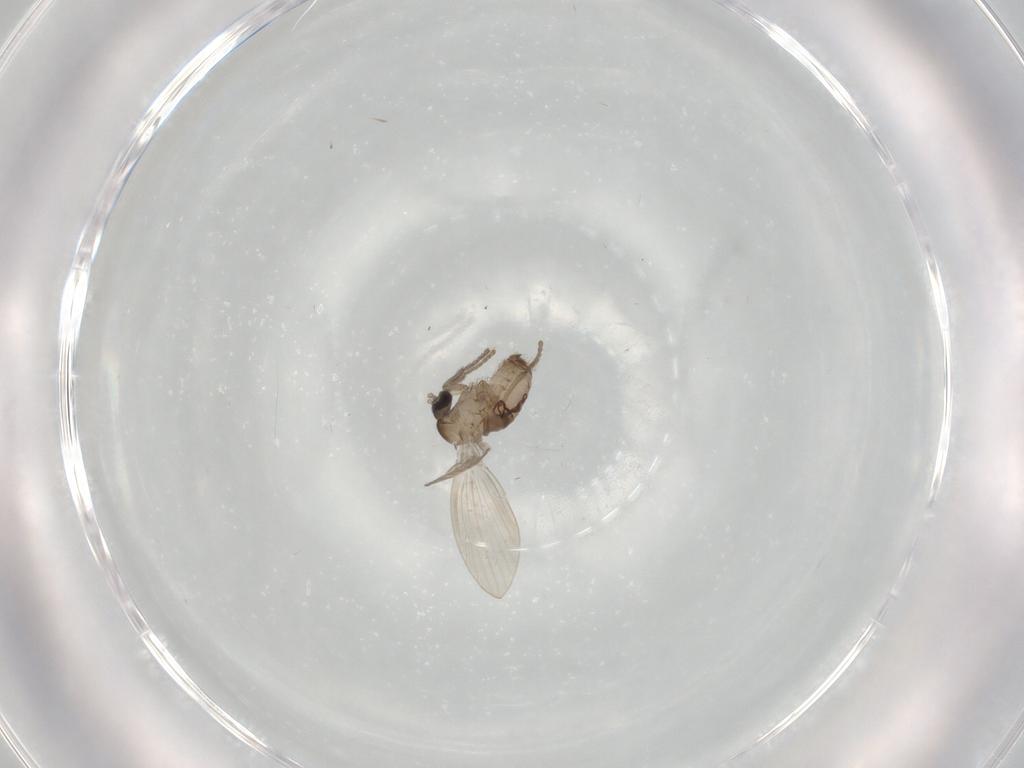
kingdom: Animalia
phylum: Arthropoda
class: Insecta
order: Diptera
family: Psychodidae
